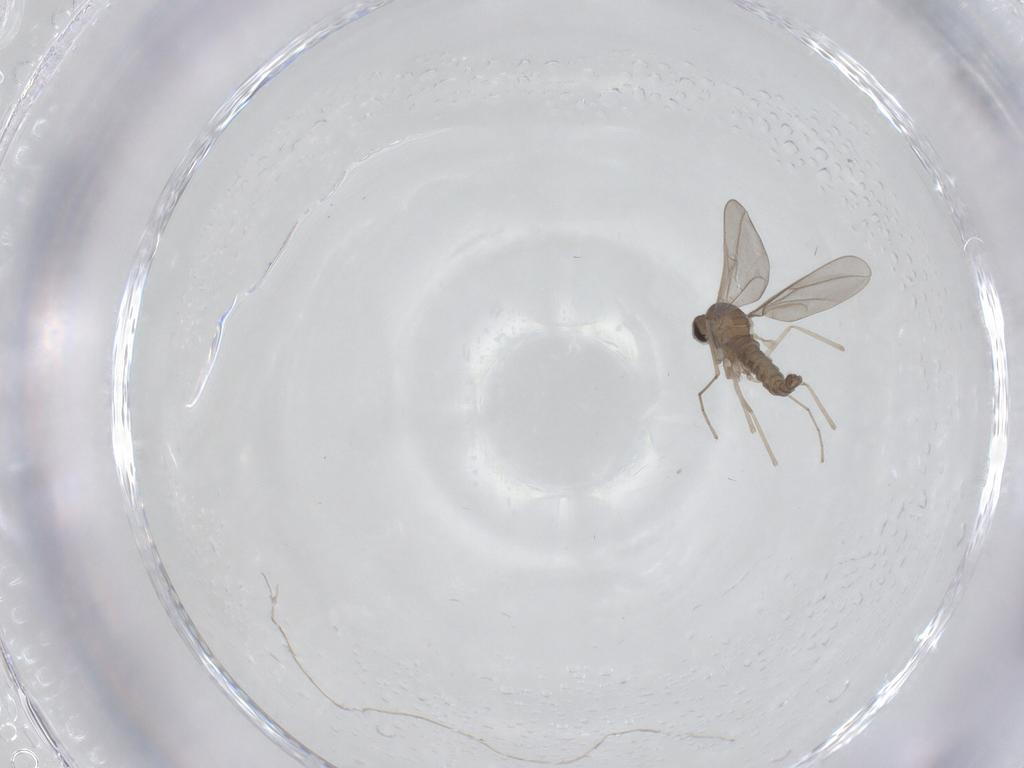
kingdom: Animalia
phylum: Arthropoda
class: Insecta
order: Diptera
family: Ceratopogonidae
